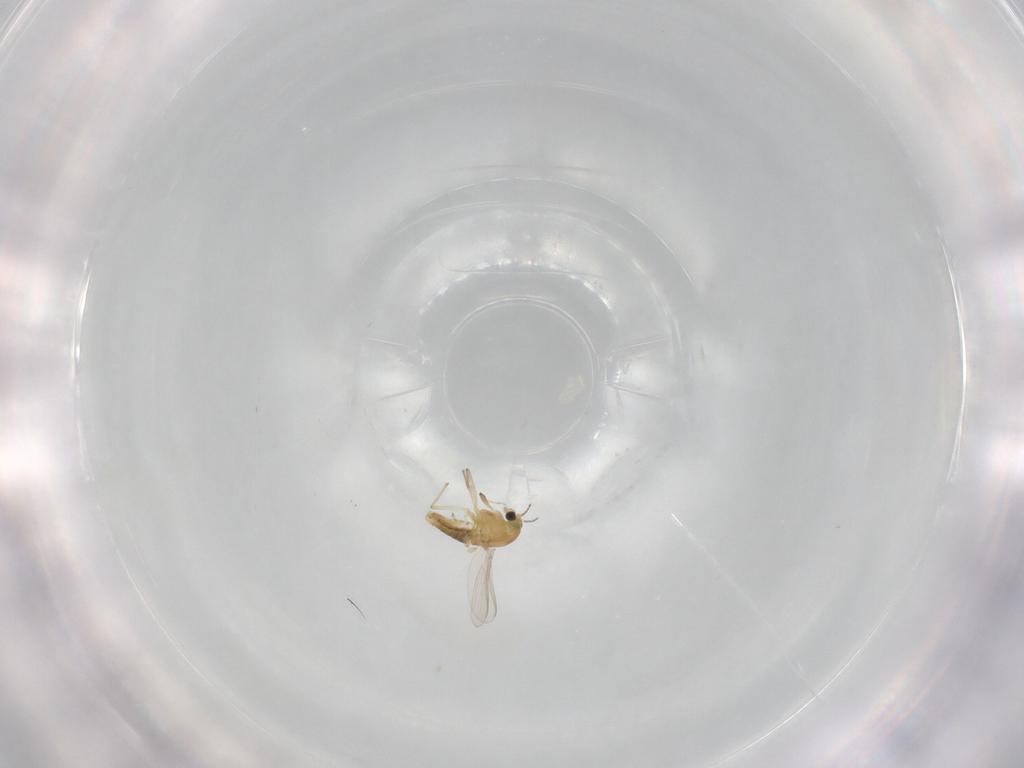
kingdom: Animalia
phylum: Arthropoda
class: Insecta
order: Diptera
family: Chironomidae
